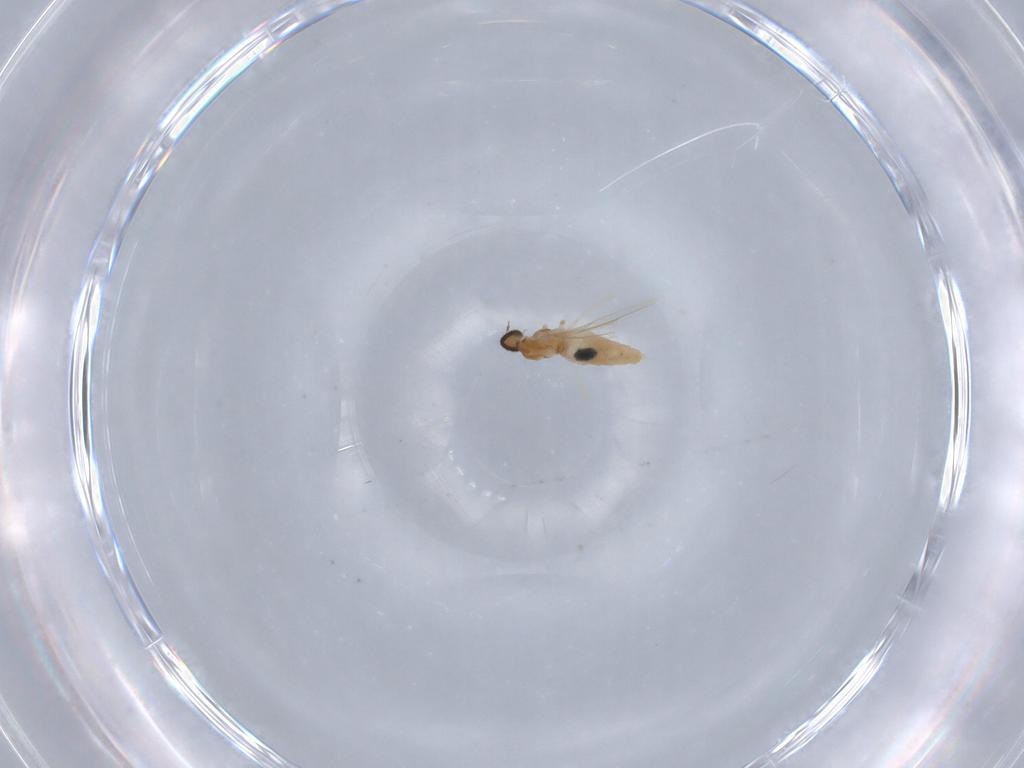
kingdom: Animalia
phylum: Arthropoda
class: Insecta
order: Diptera
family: Cecidomyiidae
